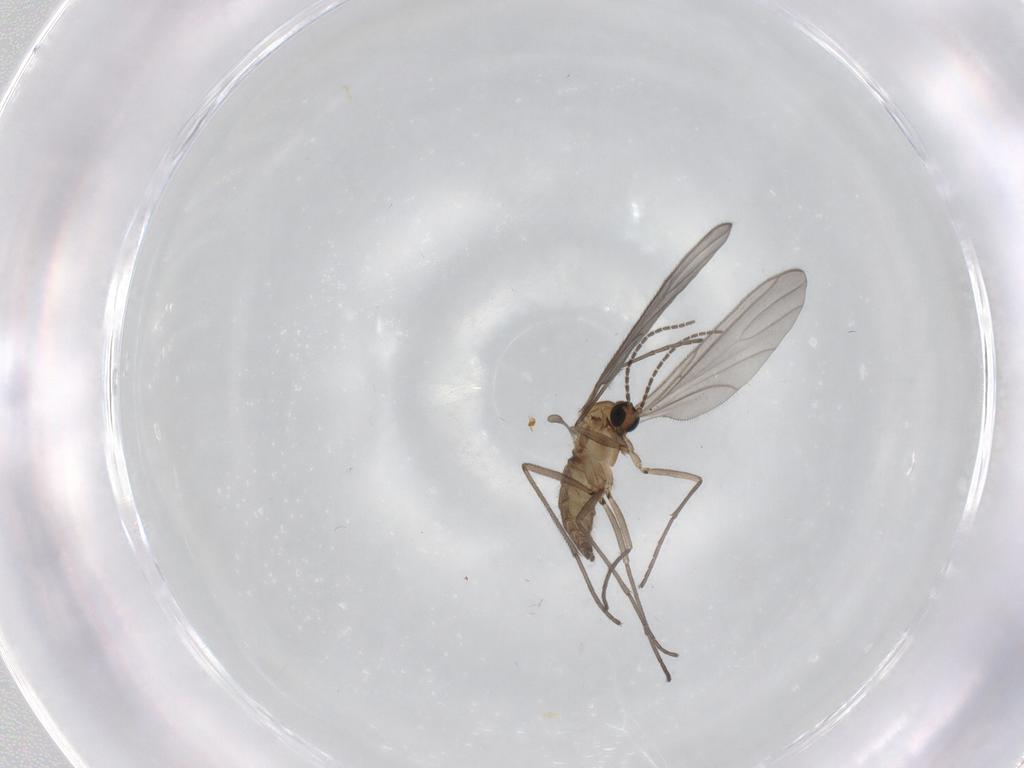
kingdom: Animalia
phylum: Arthropoda
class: Insecta
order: Diptera
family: Sciaridae
